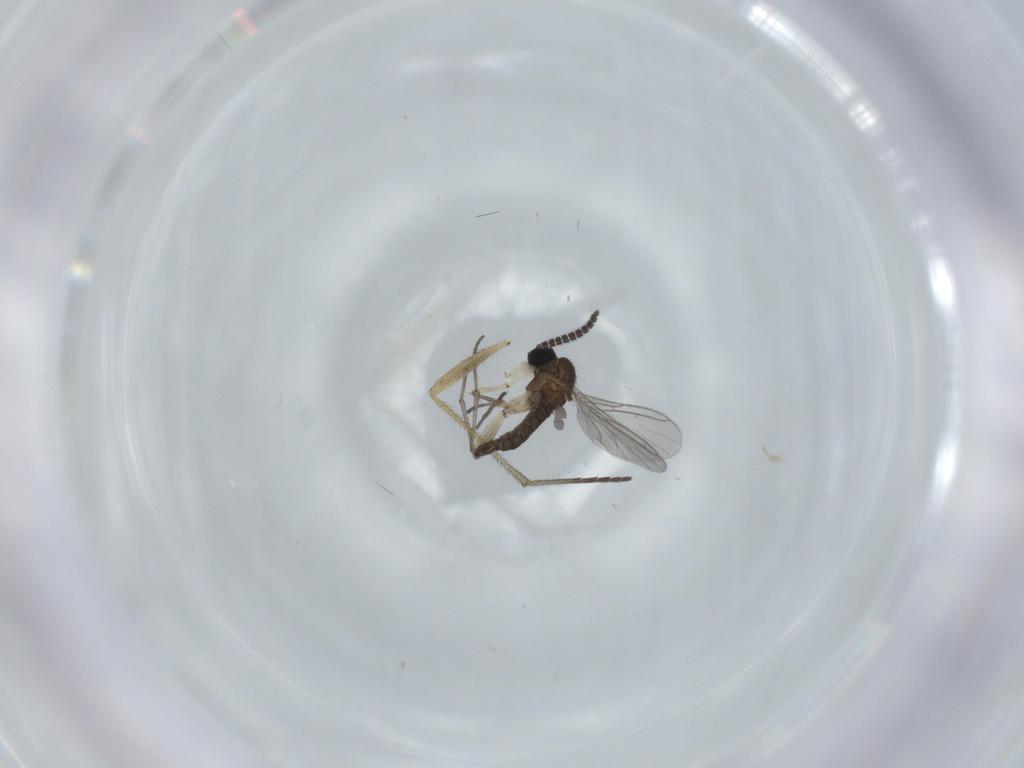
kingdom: Animalia
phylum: Arthropoda
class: Insecta
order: Diptera
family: Sciaridae
